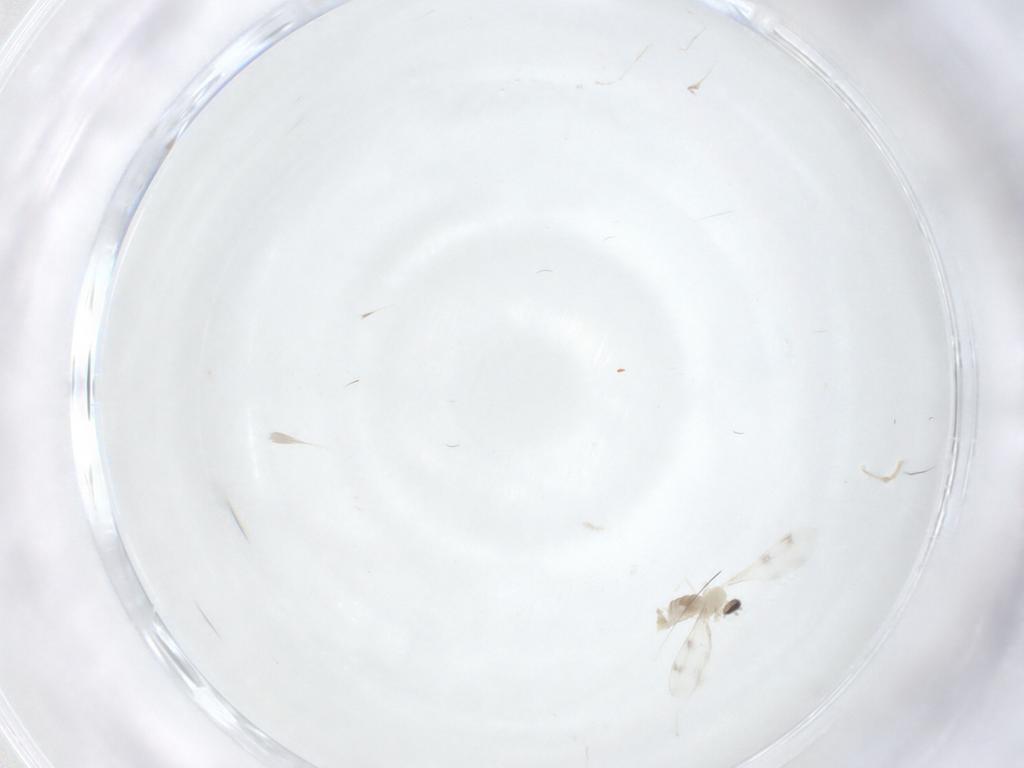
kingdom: Animalia
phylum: Arthropoda
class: Insecta
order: Diptera
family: Cecidomyiidae
